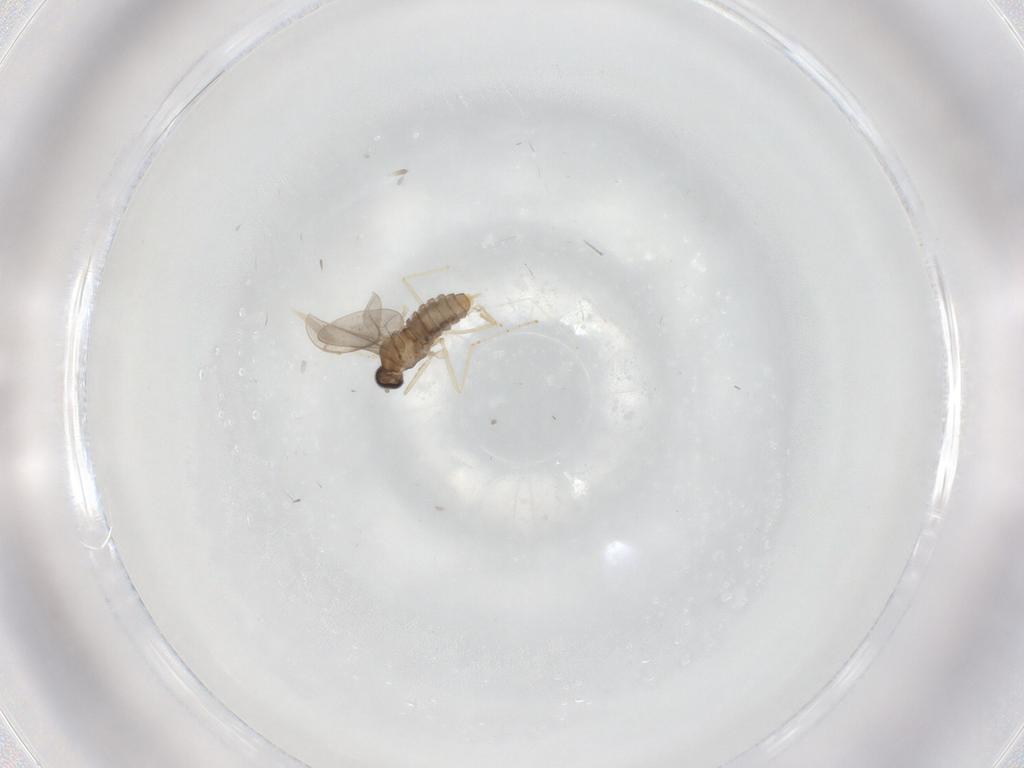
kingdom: Animalia
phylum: Arthropoda
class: Insecta
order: Diptera
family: Cecidomyiidae
